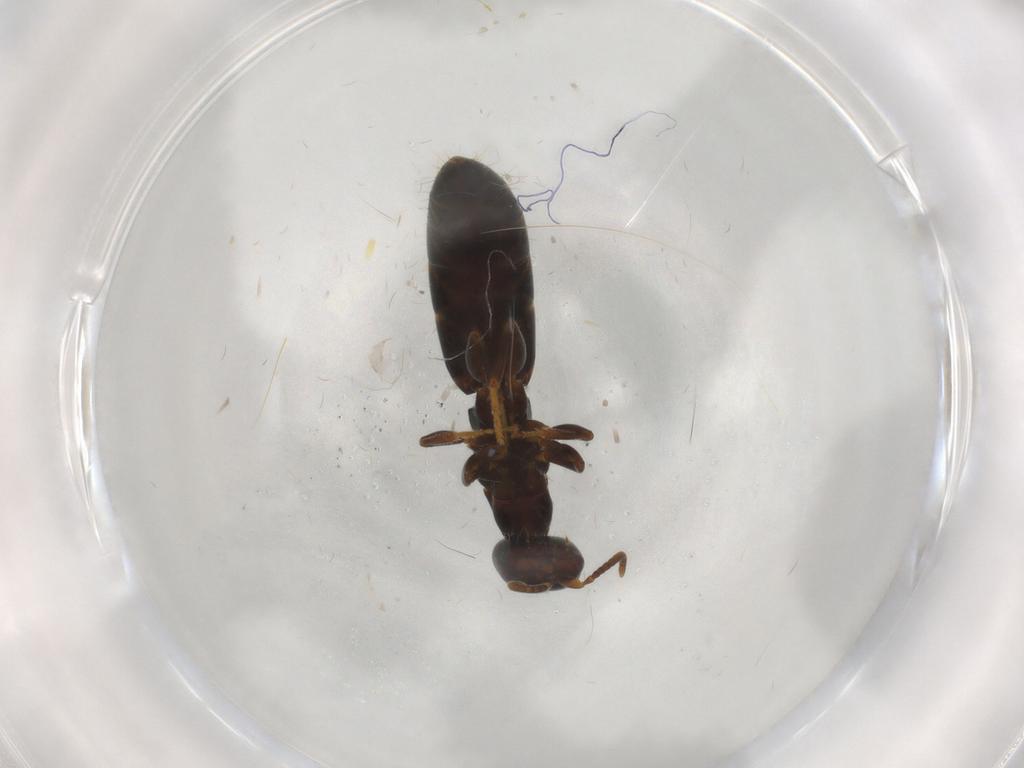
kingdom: Animalia
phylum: Arthropoda
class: Insecta
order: Hymenoptera
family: Bethylidae
